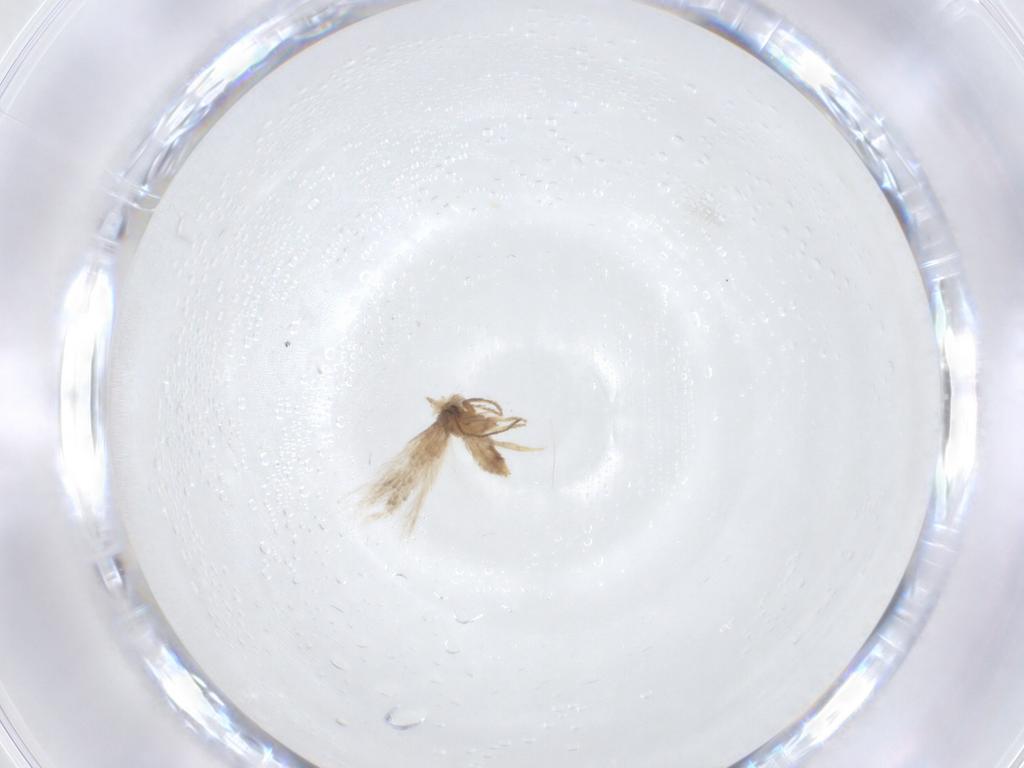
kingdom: Animalia
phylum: Arthropoda
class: Insecta
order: Lepidoptera
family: Nepticulidae
